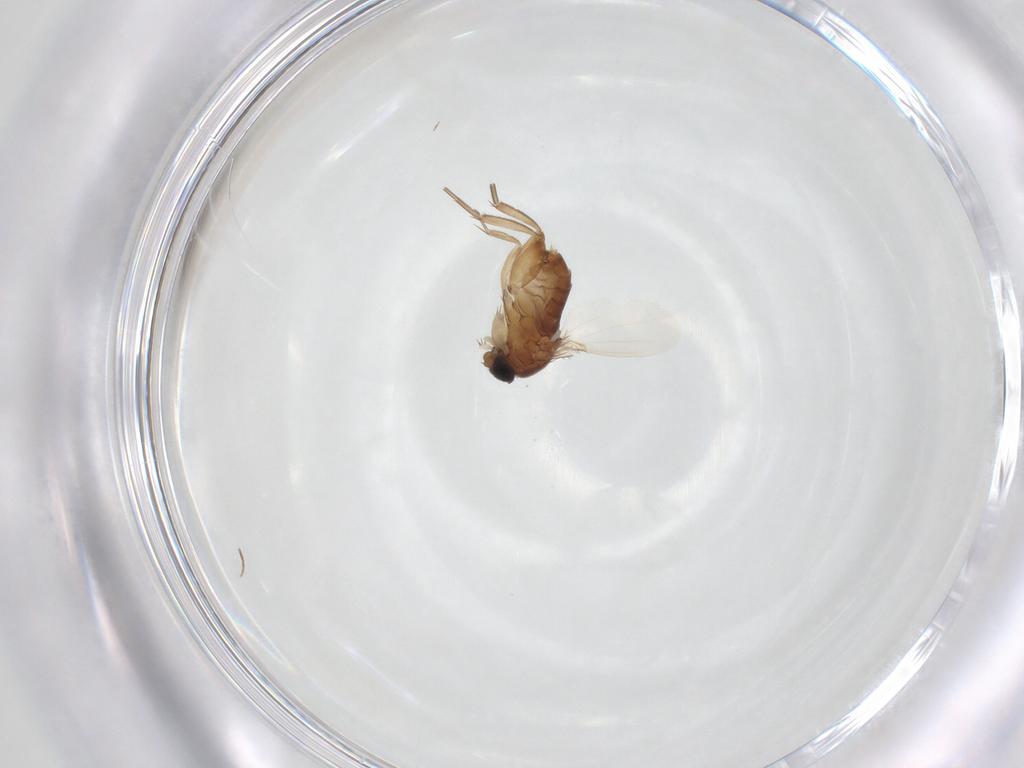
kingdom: Animalia
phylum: Arthropoda
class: Insecta
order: Diptera
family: Phoridae
